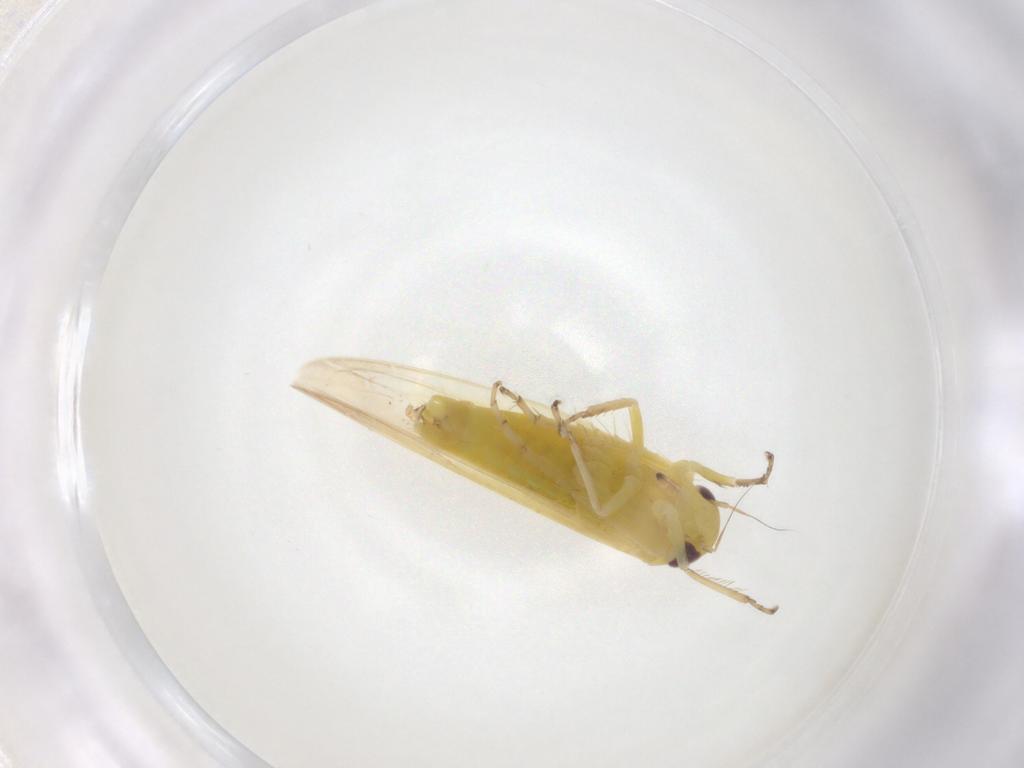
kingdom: Animalia
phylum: Arthropoda
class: Insecta
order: Hemiptera
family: Cicadellidae
